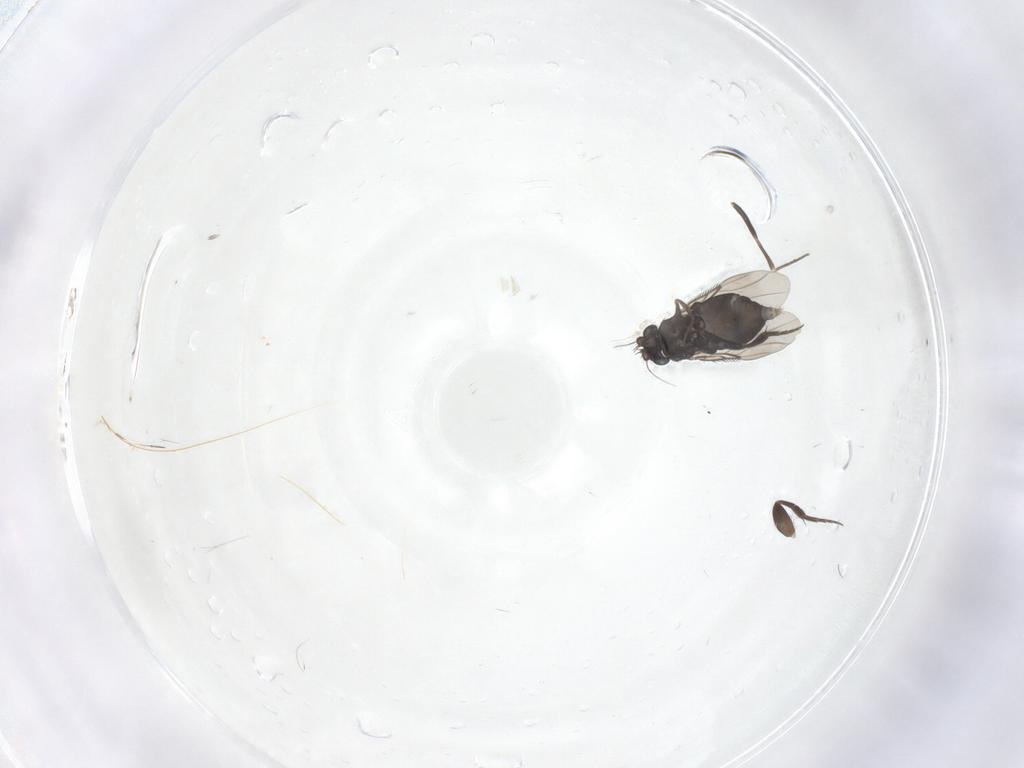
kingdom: Animalia
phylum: Arthropoda
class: Insecta
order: Diptera
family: Phoridae
